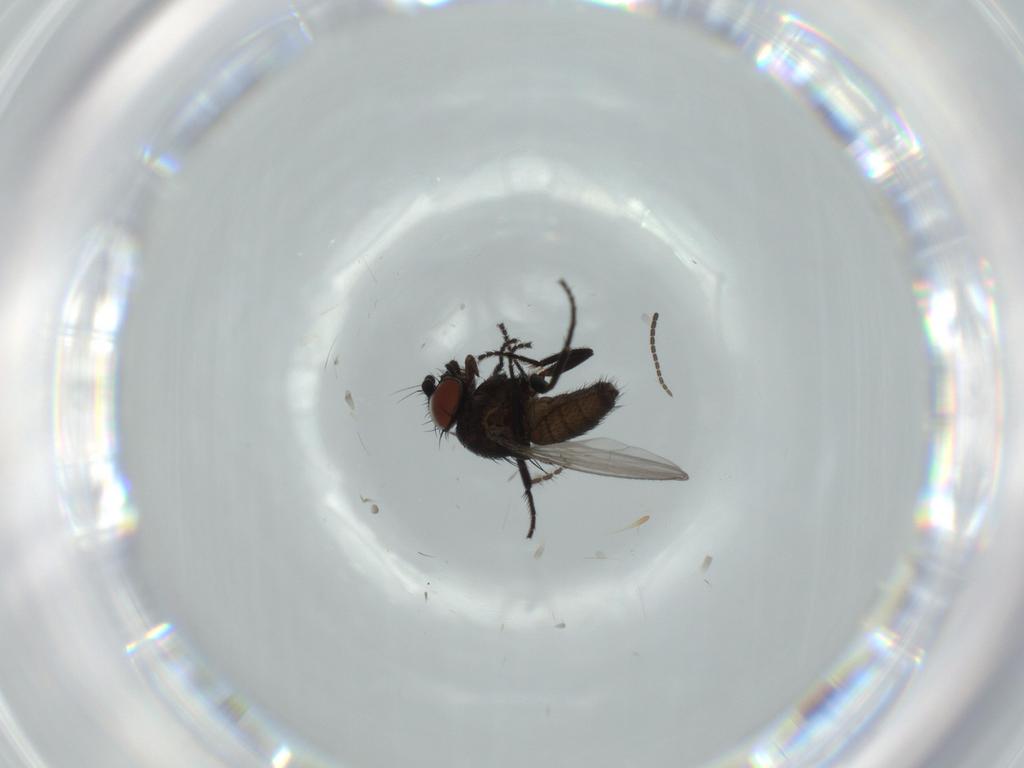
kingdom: Animalia
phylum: Arthropoda
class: Insecta
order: Diptera
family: Milichiidae
